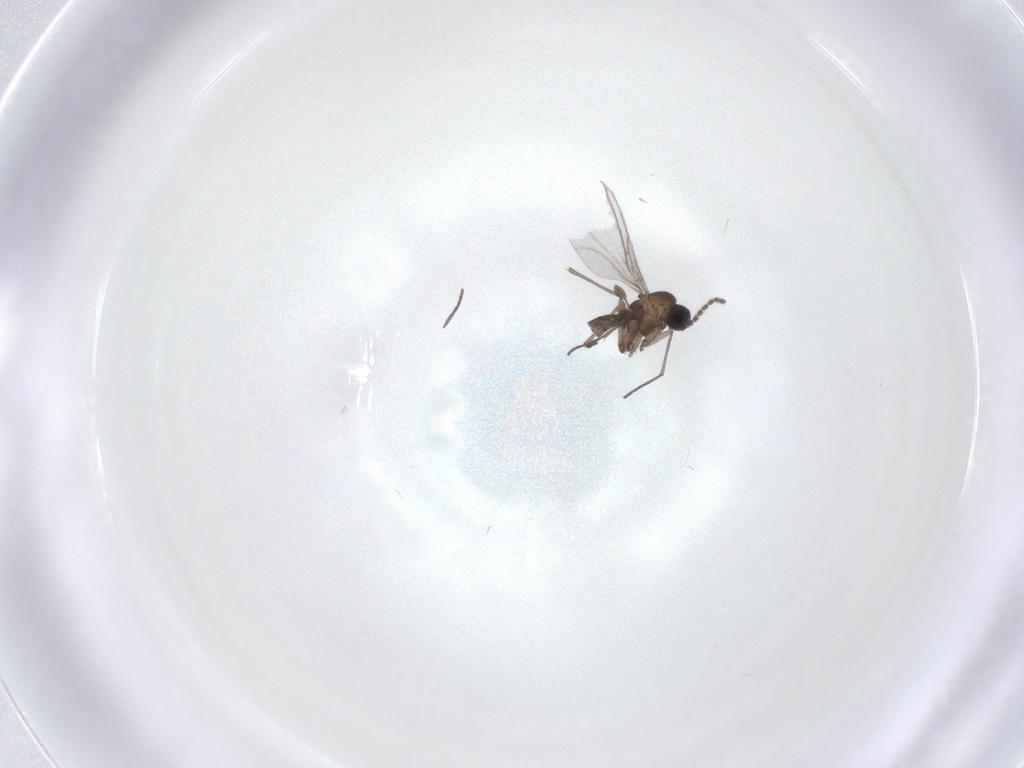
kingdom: Animalia
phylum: Arthropoda
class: Insecta
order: Diptera
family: Sciaridae
